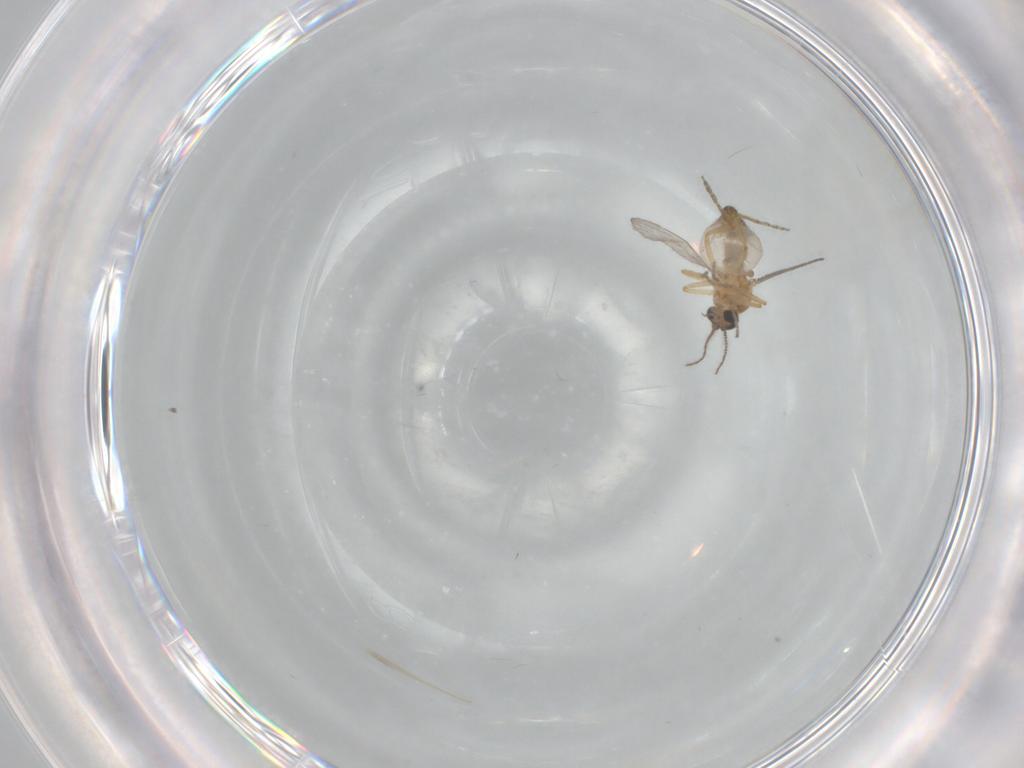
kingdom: Animalia
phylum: Arthropoda
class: Insecta
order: Diptera
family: Ceratopogonidae
